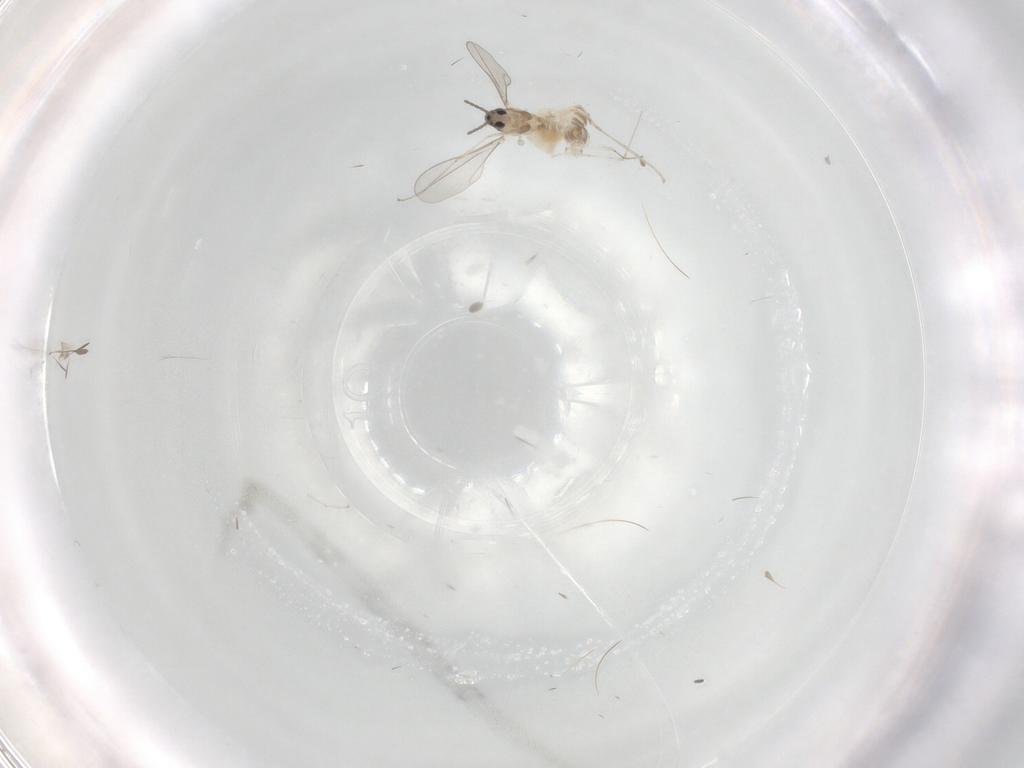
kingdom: Animalia
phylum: Arthropoda
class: Insecta
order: Diptera
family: Cecidomyiidae
